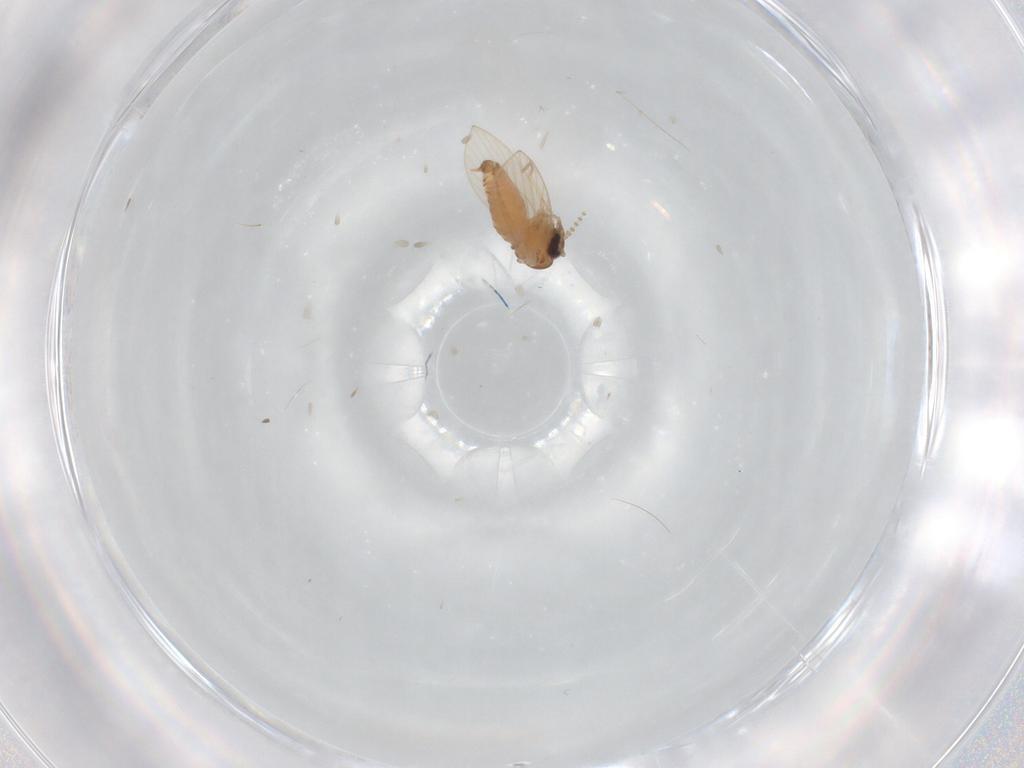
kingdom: Animalia
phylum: Arthropoda
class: Insecta
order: Diptera
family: Psychodidae
